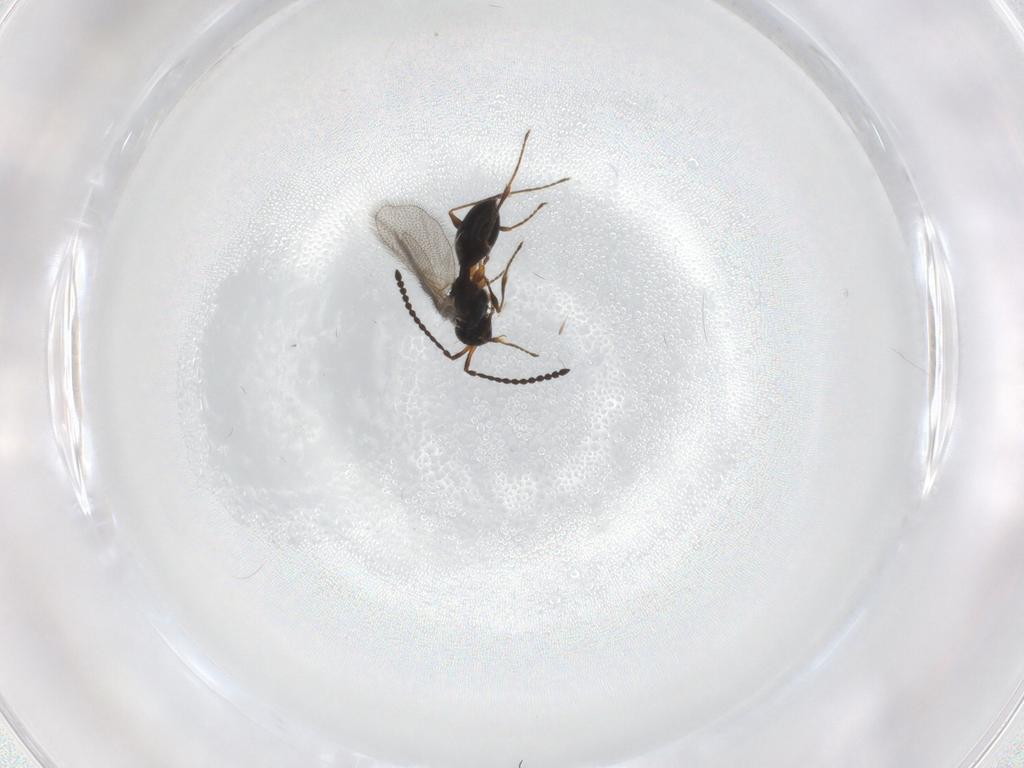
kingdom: Animalia
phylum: Arthropoda
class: Insecta
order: Hymenoptera
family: Diapriidae
